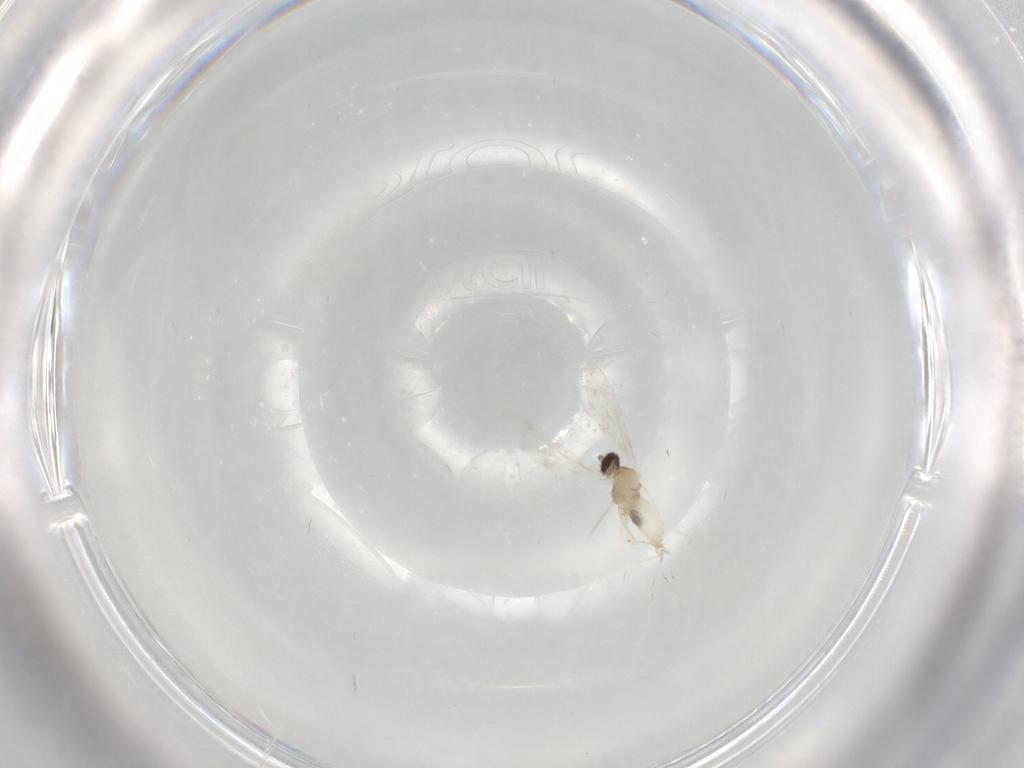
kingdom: Animalia
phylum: Arthropoda
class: Insecta
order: Diptera
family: Cecidomyiidae
